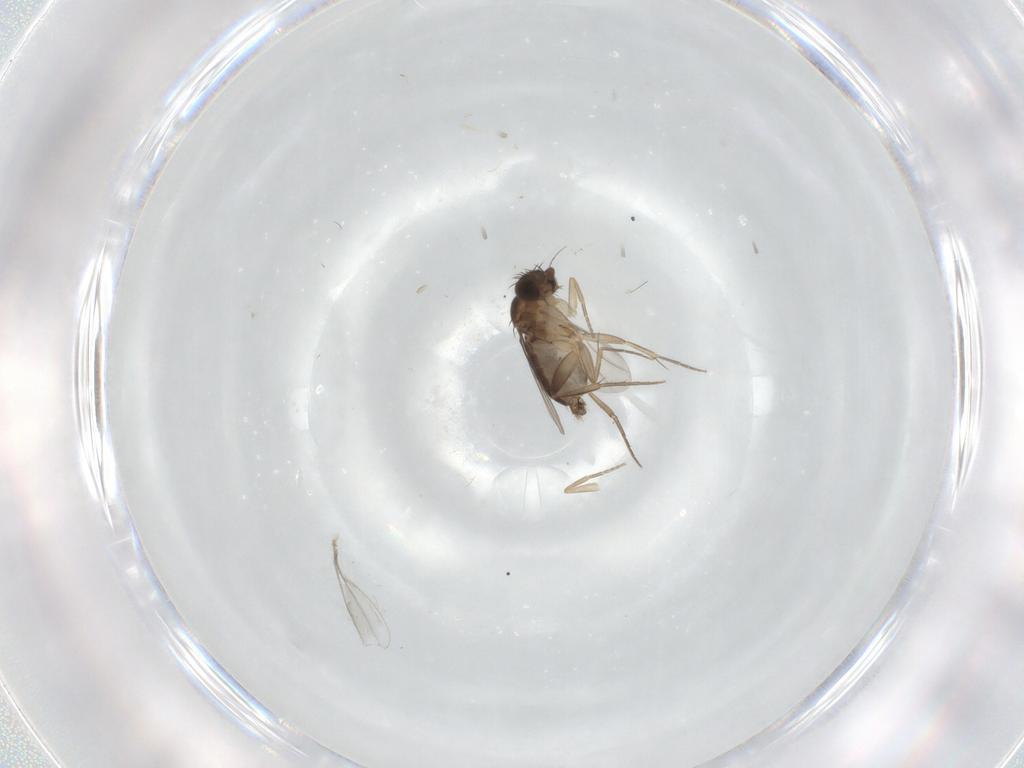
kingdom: Animalia
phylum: Arthropoda
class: Insecta
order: Diptera
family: Phoridae
